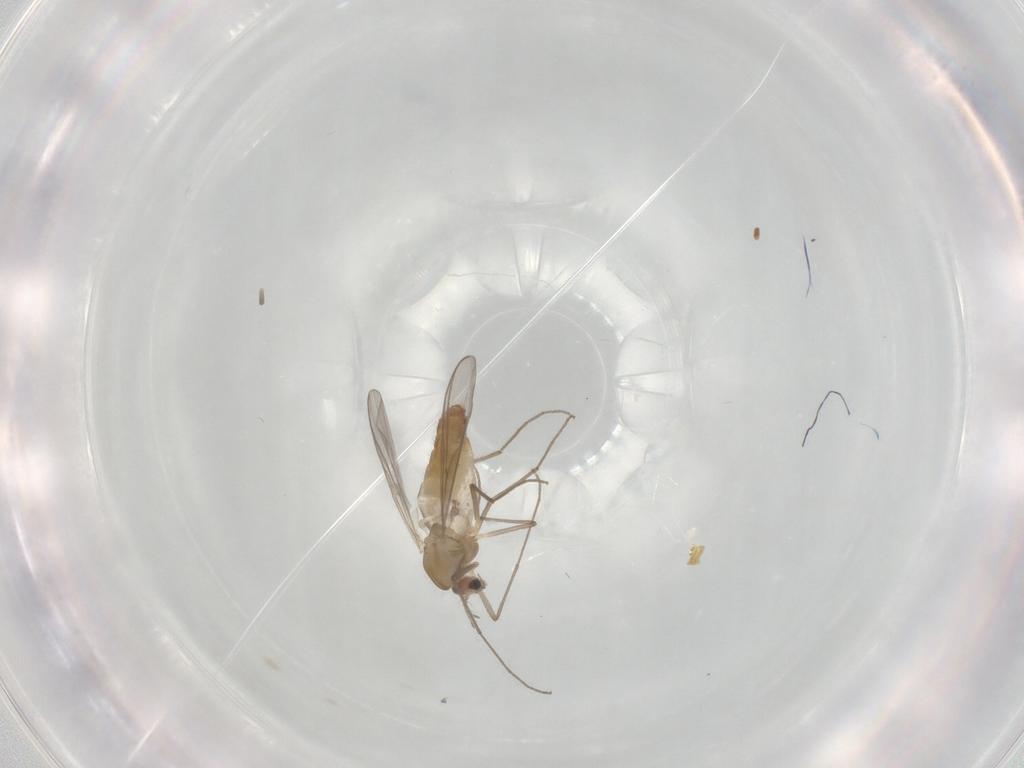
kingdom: Animalia
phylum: Arthropoda
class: Insecta
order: Diptera
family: Chironomidae
